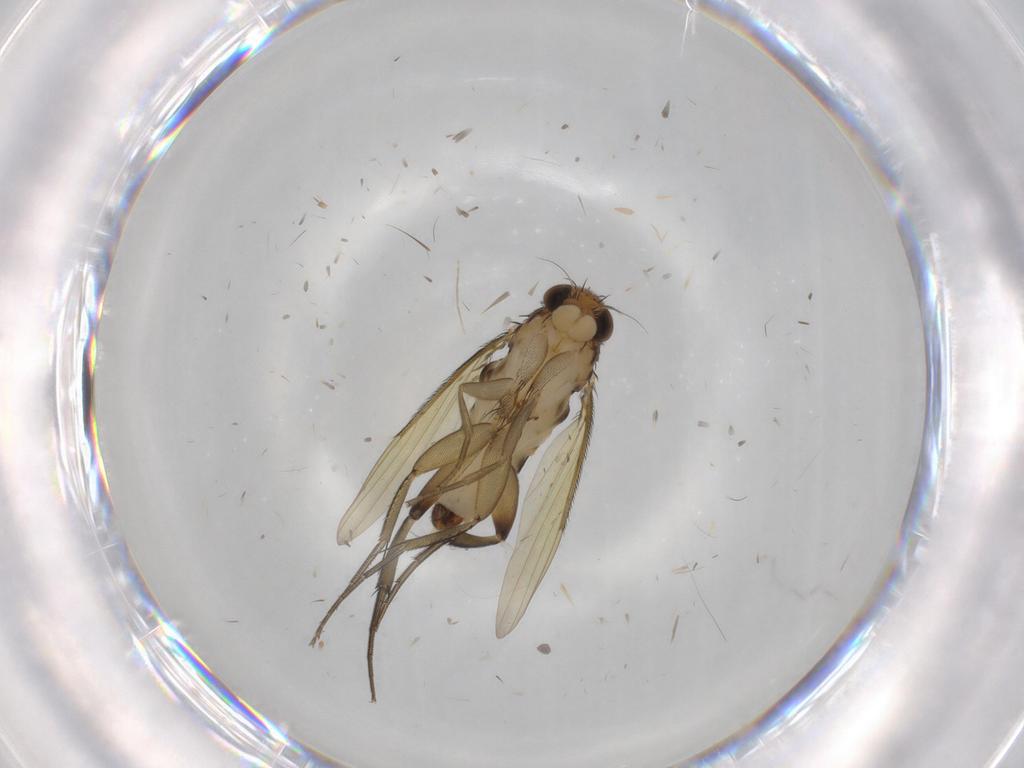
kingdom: Animalia
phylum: Arthropoda
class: Insecta
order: Diptera
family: Phoridae
